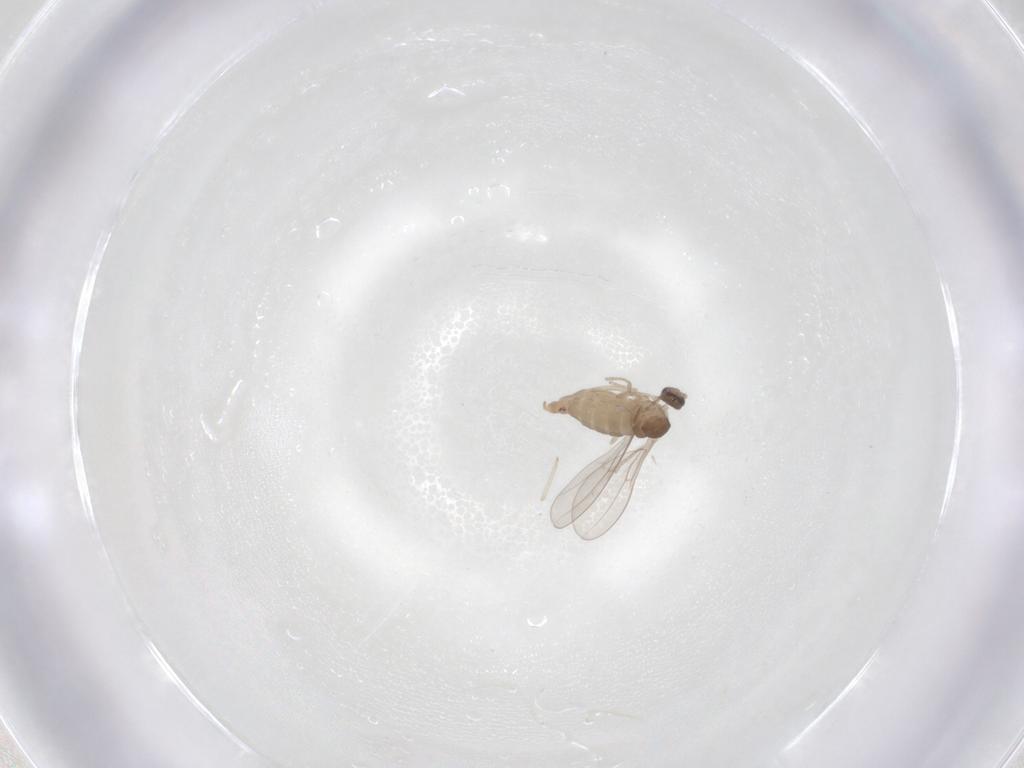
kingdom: Animalia
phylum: Arthropoda
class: Insecta
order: Diptera
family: Cecidomyiidae
